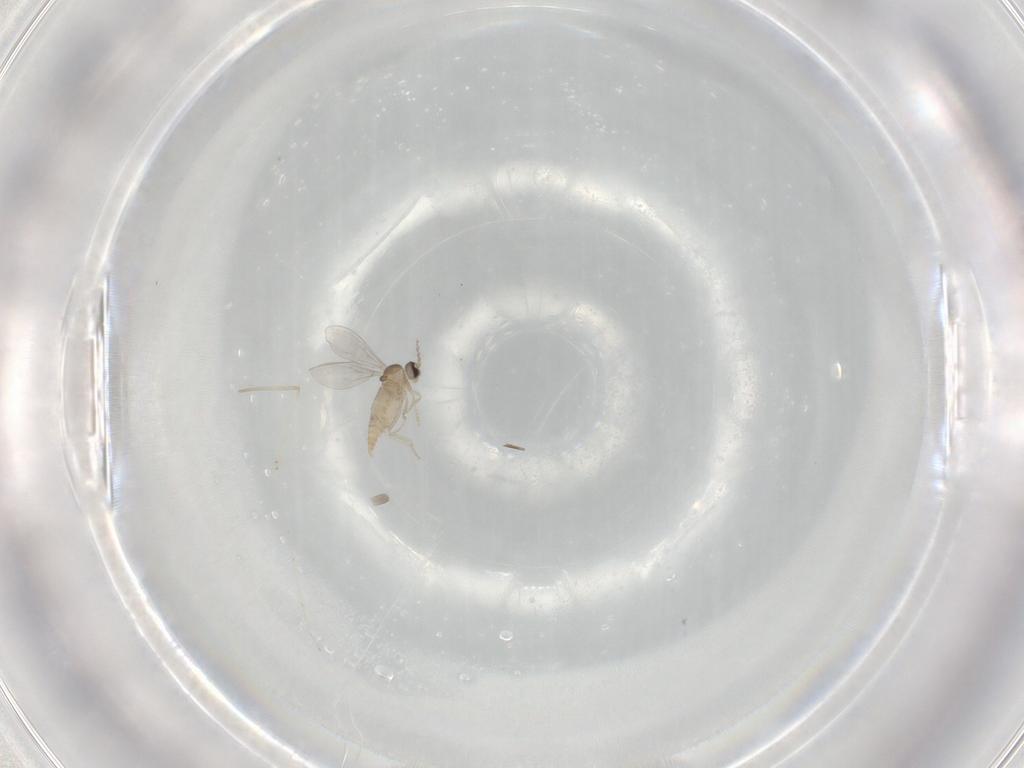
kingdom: Animalia
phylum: Arthropoda
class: Insecta
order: Diptera
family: Cecidomyiidae
